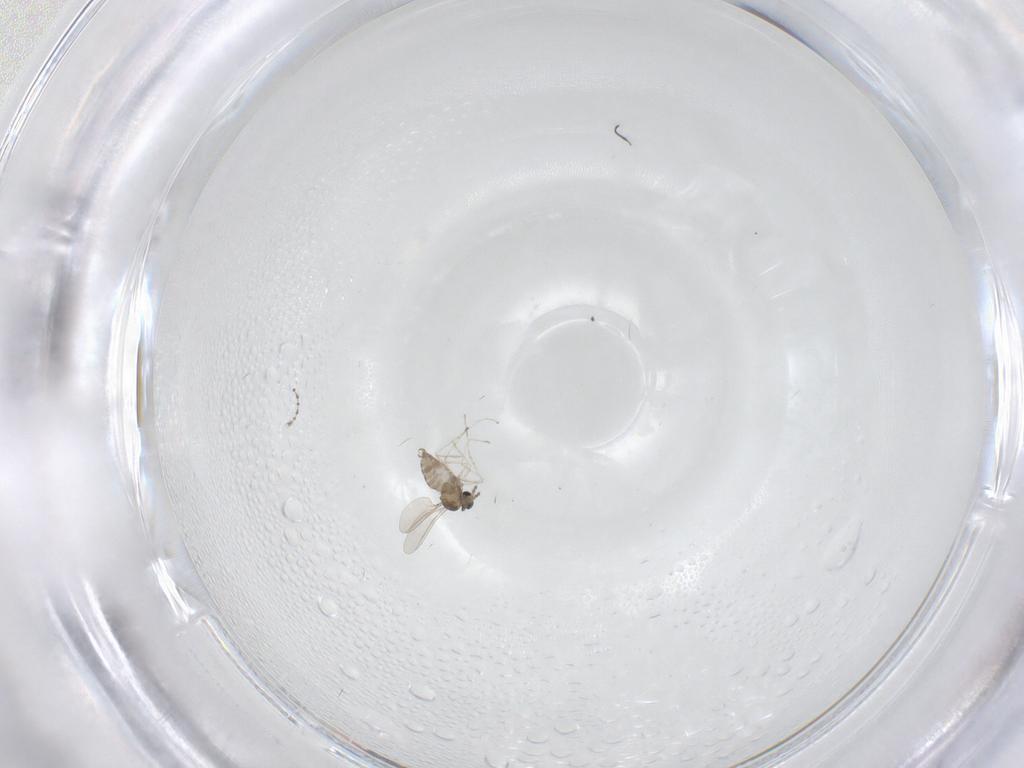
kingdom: Animalia
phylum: Arthropoda
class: Insecta
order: Diptera
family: Cecidomyiidae
